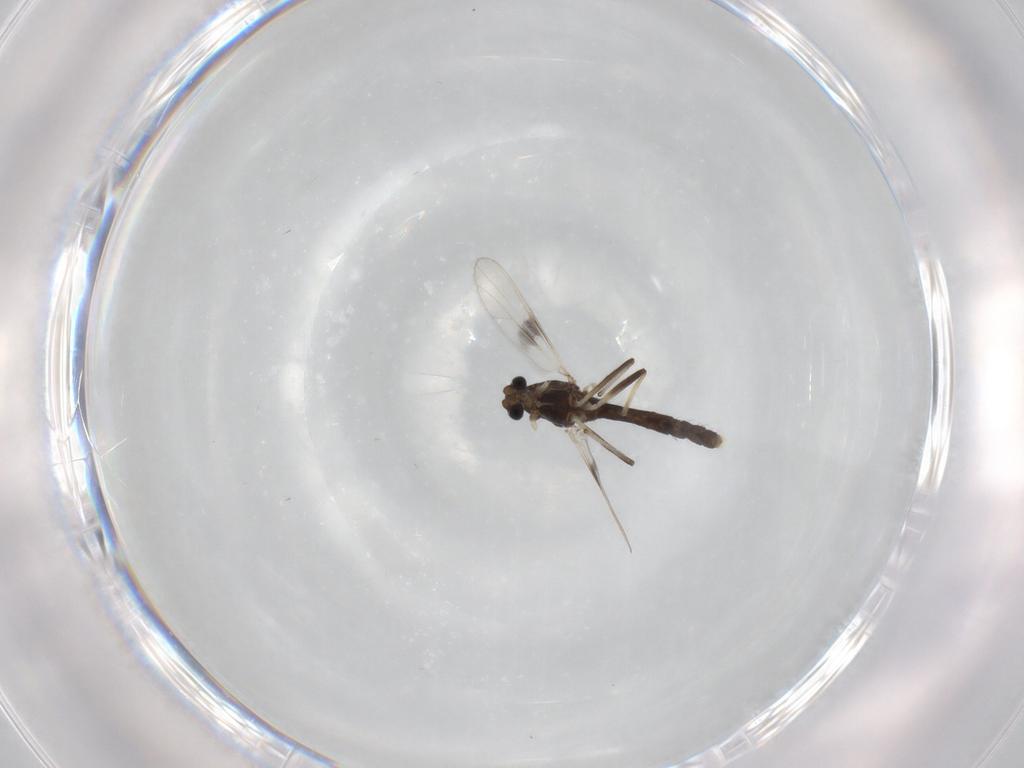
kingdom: Animalia
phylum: Arthropoda
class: Insecta
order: Diptera
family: Chironomidae
